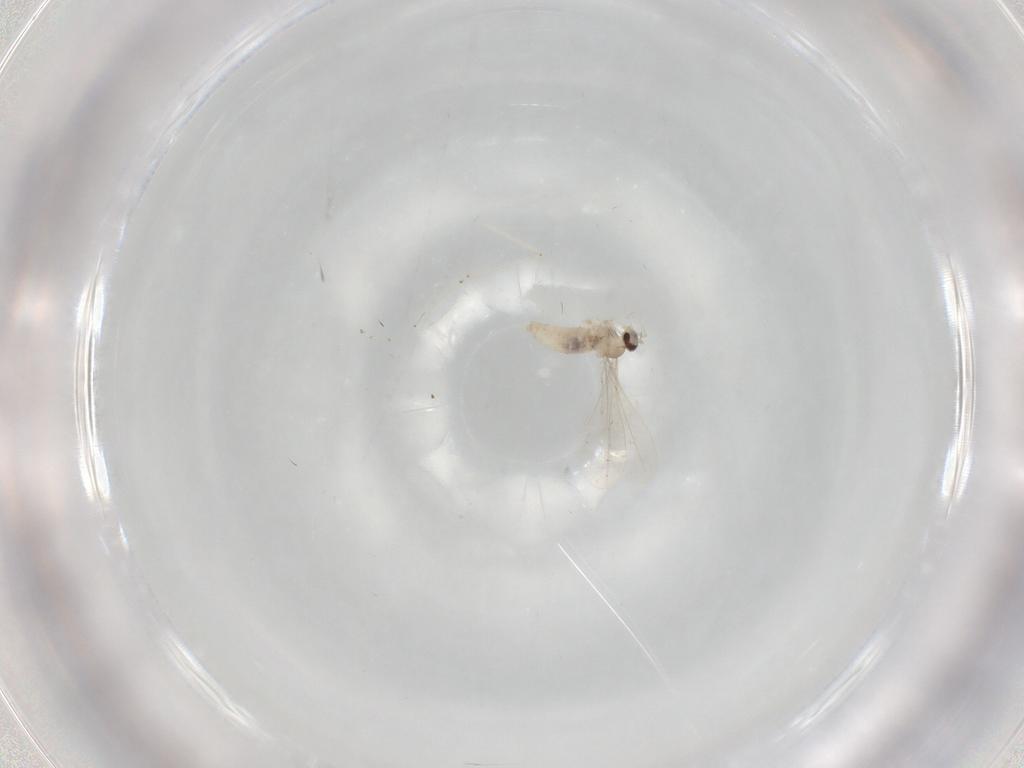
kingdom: Animalia
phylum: Arthropoda
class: Insecta
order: Diptera
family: Cecidomyiidae
